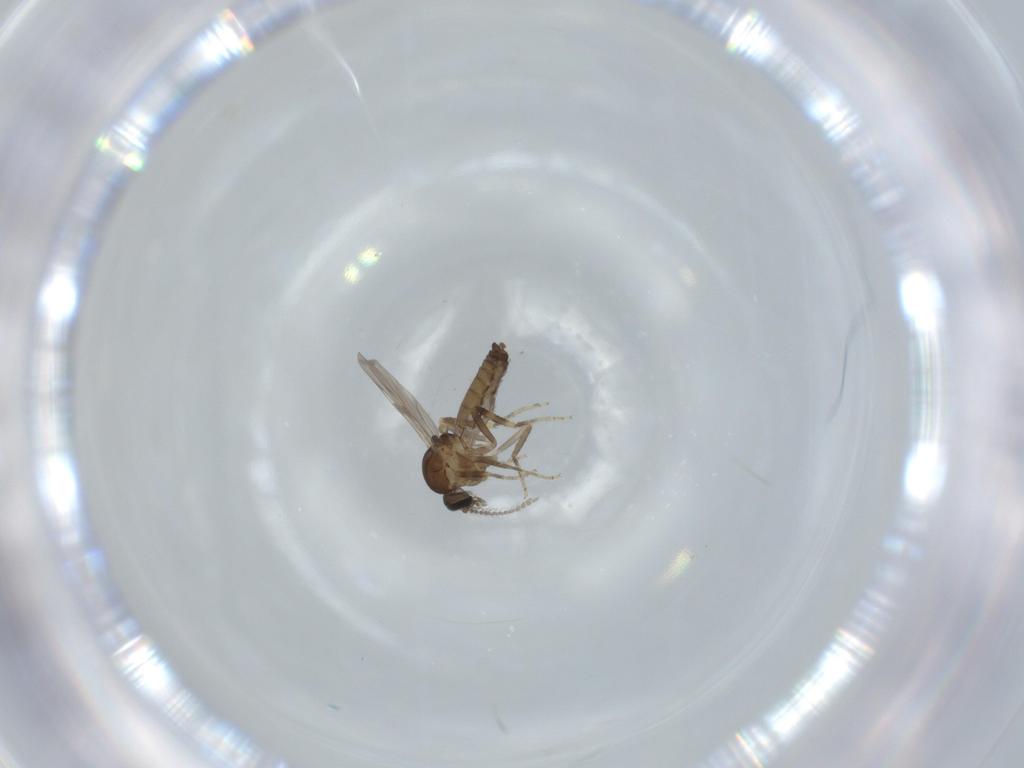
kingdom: Animalia
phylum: Arthropoda
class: Insecta
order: Diptera
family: Ceratopogonidae
